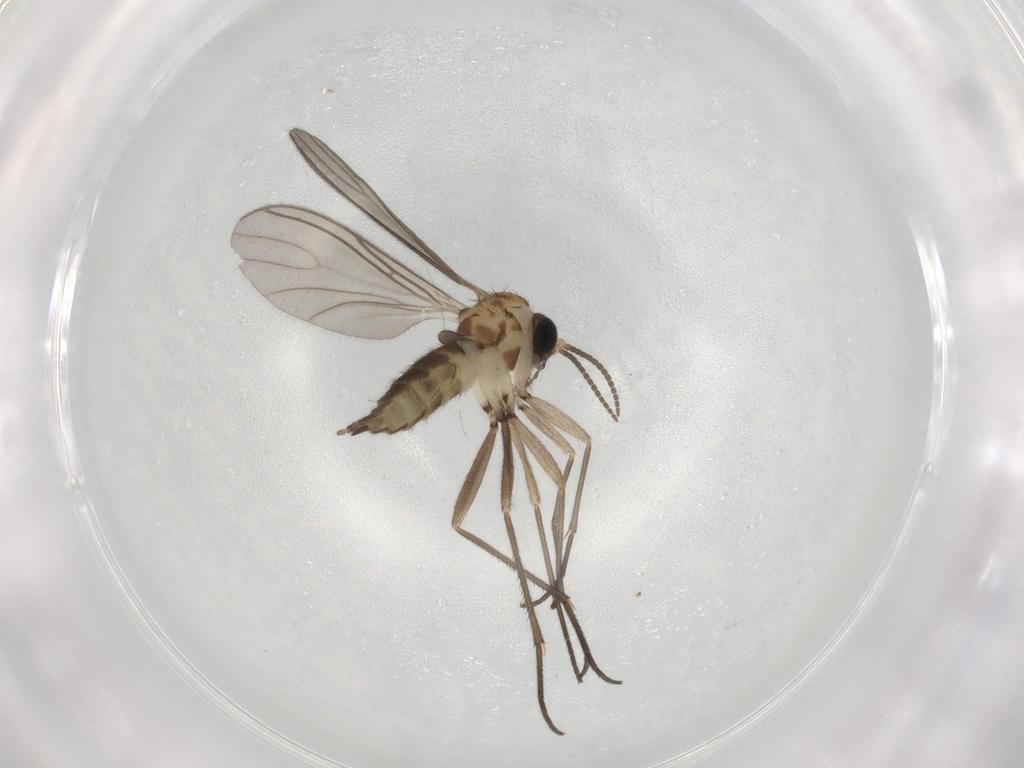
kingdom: Animalia
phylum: Arthropoda
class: Insecta
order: Diptera
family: Sciaridae
